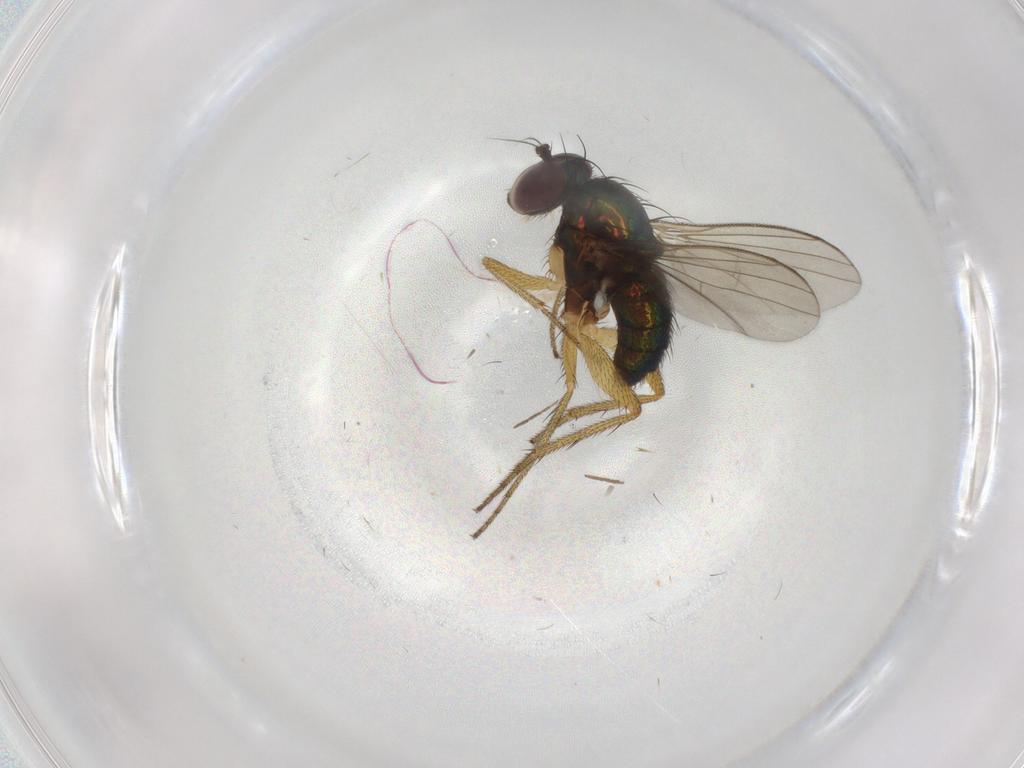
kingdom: Animalia
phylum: Arthropoda
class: Insecta
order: Diptera
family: Chironomidae
